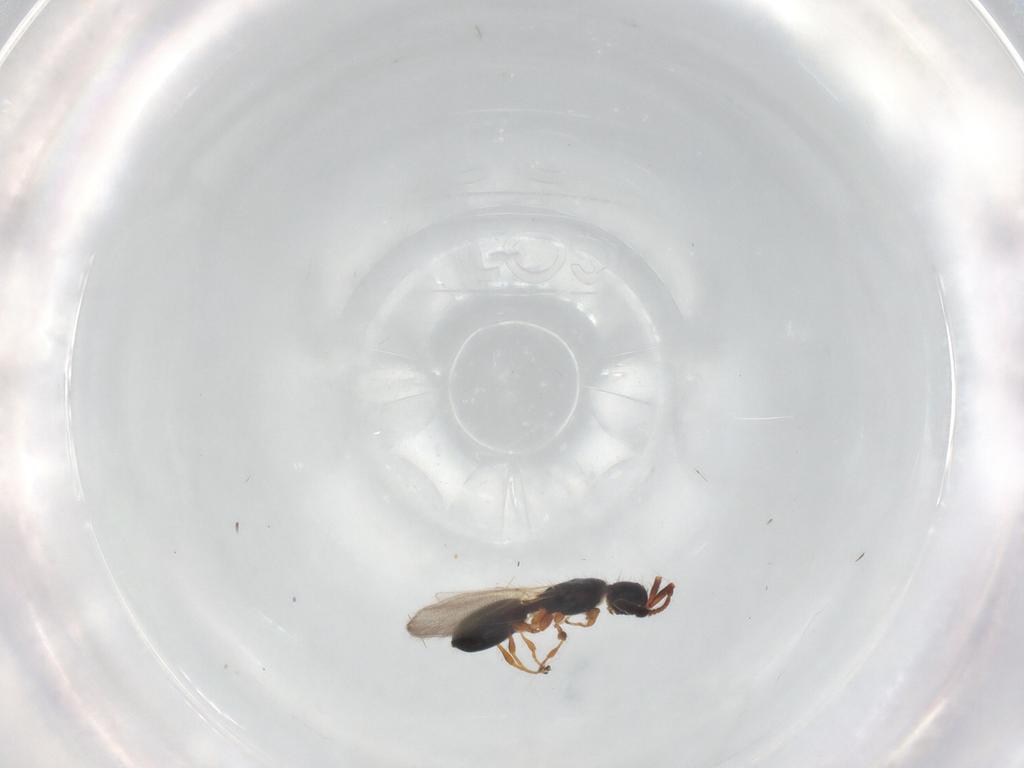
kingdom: Animalia
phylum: Arthropoda
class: Insecta
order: Hymenoptera
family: Diapriidae
